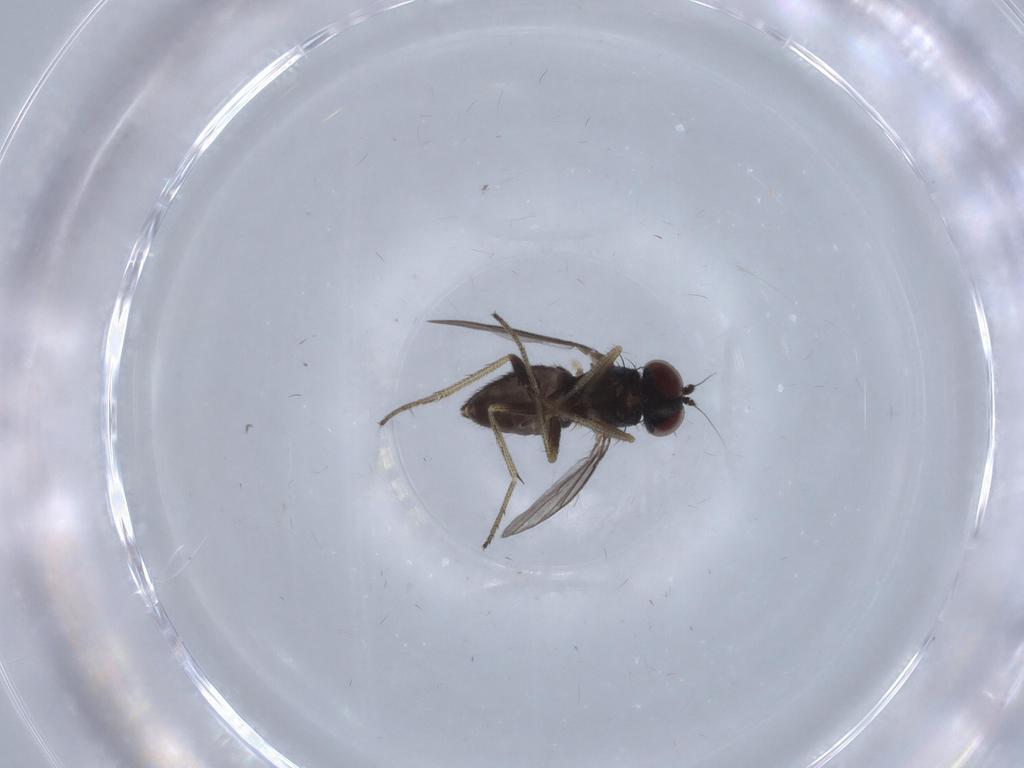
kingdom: Animalia
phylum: Arthropoda
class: Insecta
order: Diptera
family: Dolichopodidae
